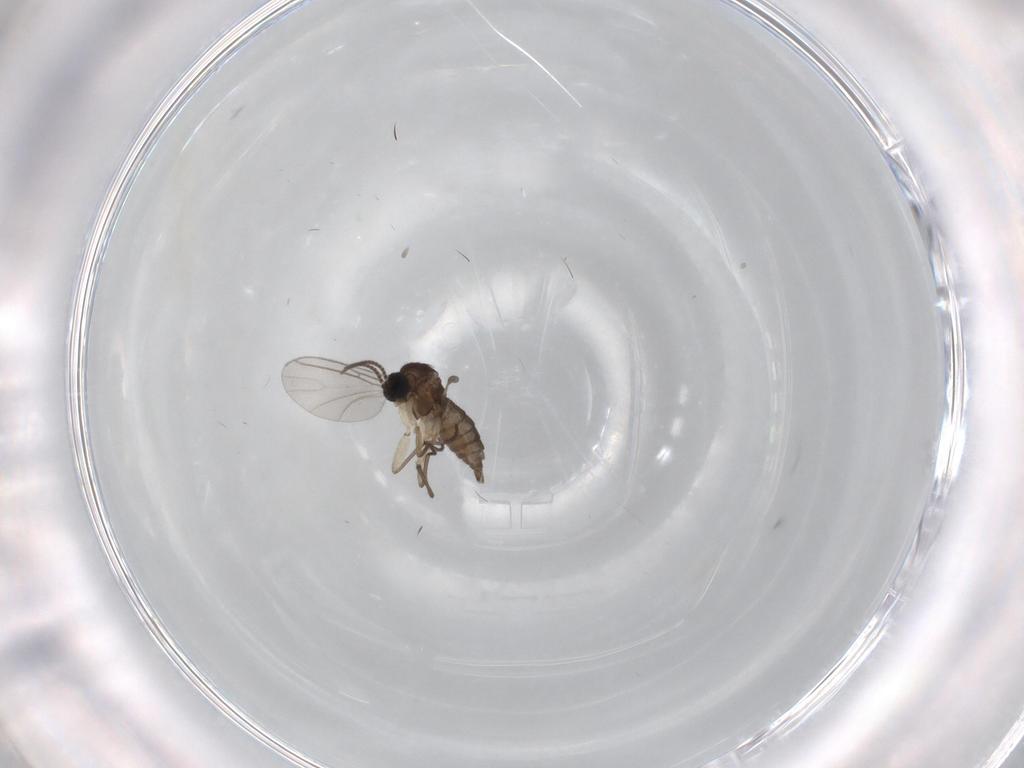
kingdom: Animalia
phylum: Arthropoda
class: Insecta
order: Diptera
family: Sciaridae
